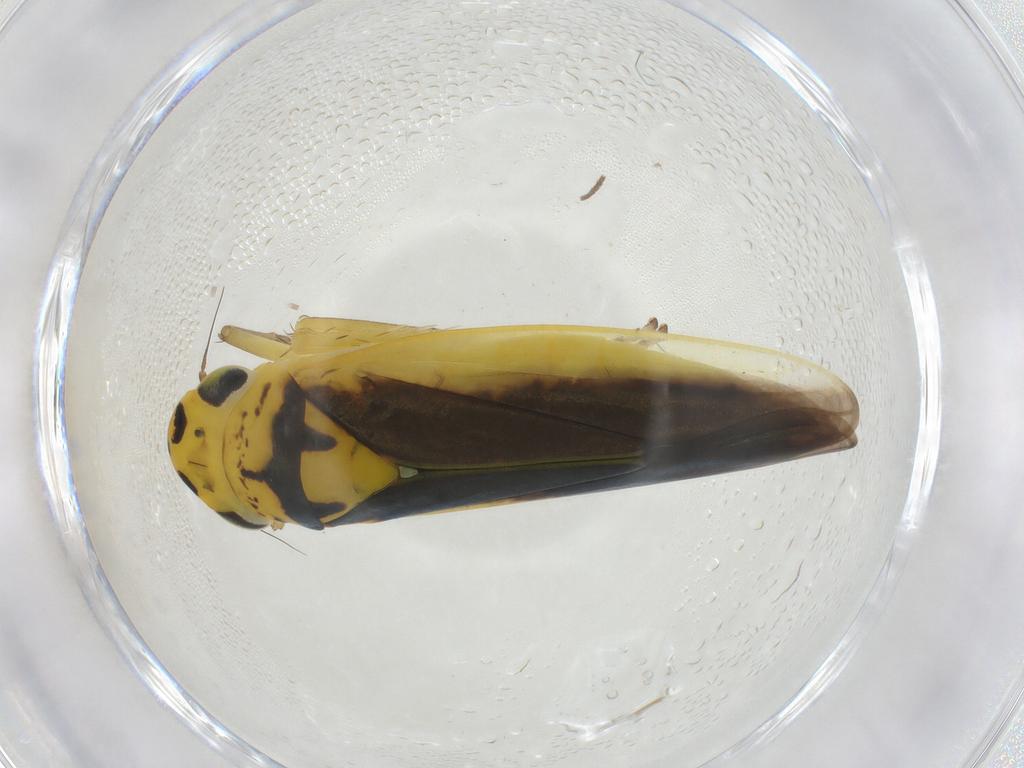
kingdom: Animalia
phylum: Arthropoda
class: Insecta
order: Hemiptera
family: Cicadellidae
